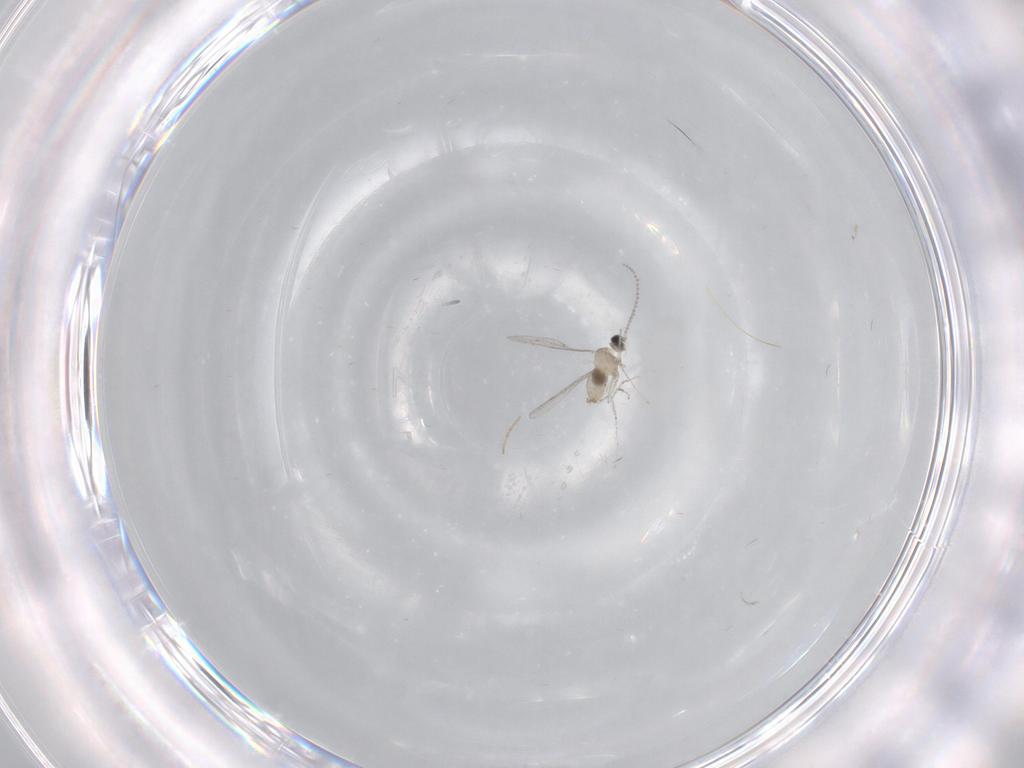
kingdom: Animalia
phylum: Arthropoda
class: Insecta
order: Diptera
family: Cecidomyiidae
